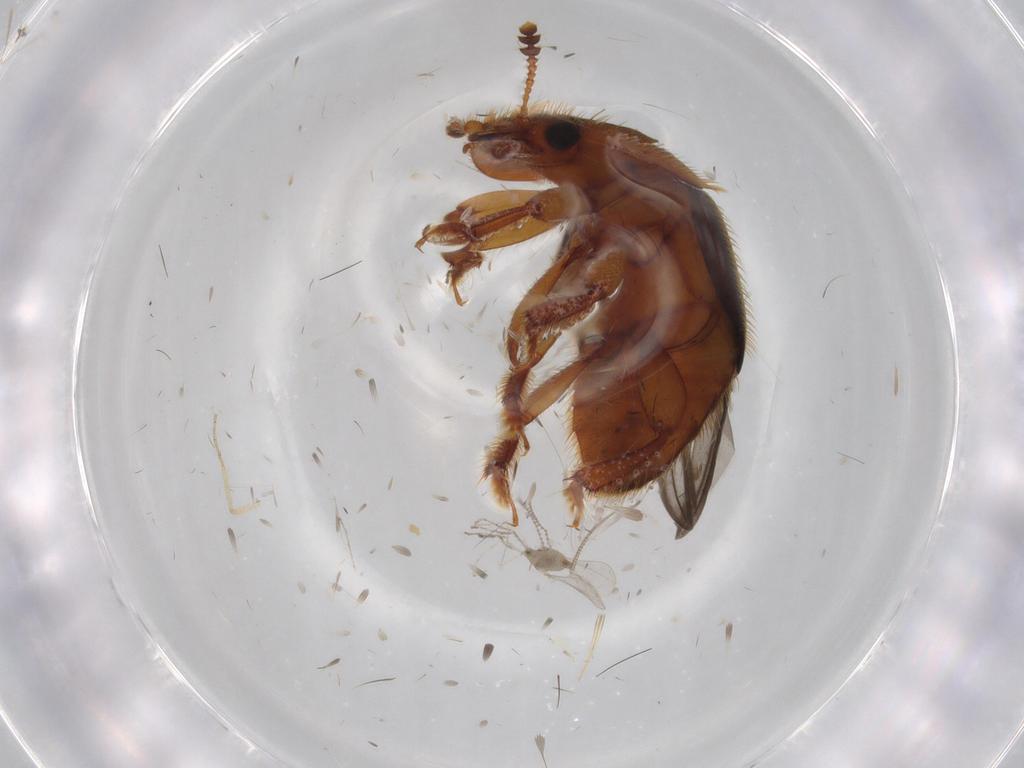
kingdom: Animalia
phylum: Arthropoda
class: Insecta
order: Coleoptera
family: Nitidulidae
